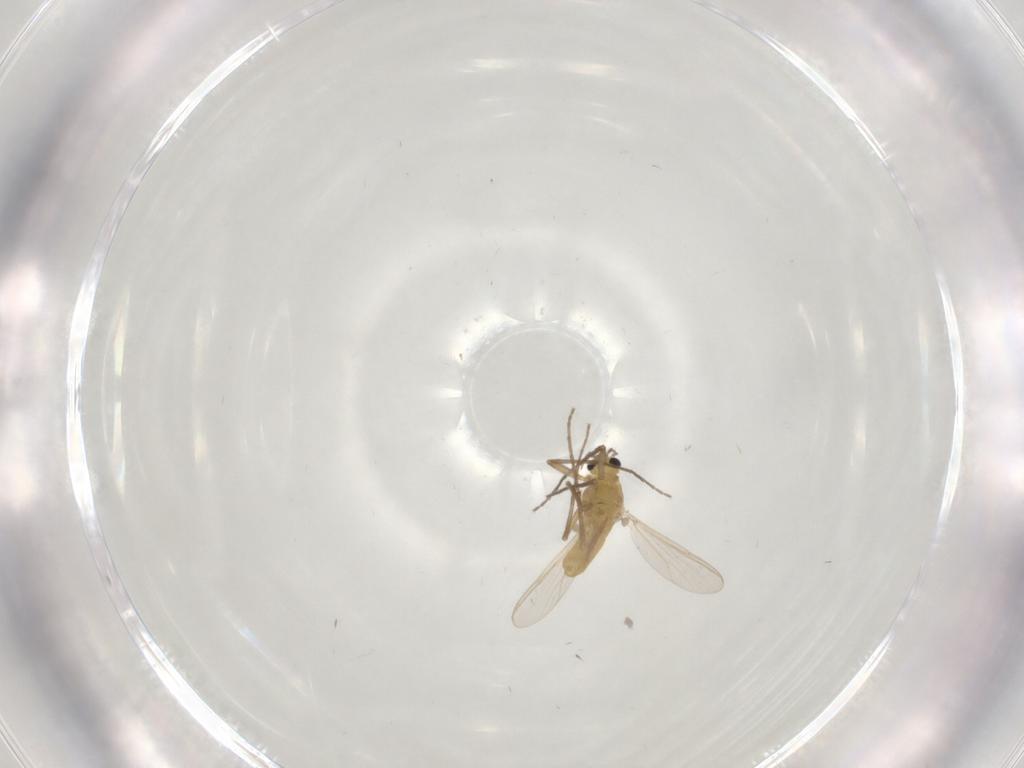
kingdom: Animalia
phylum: Arthropoda
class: Insecta
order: Diptera
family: Chironomidae
